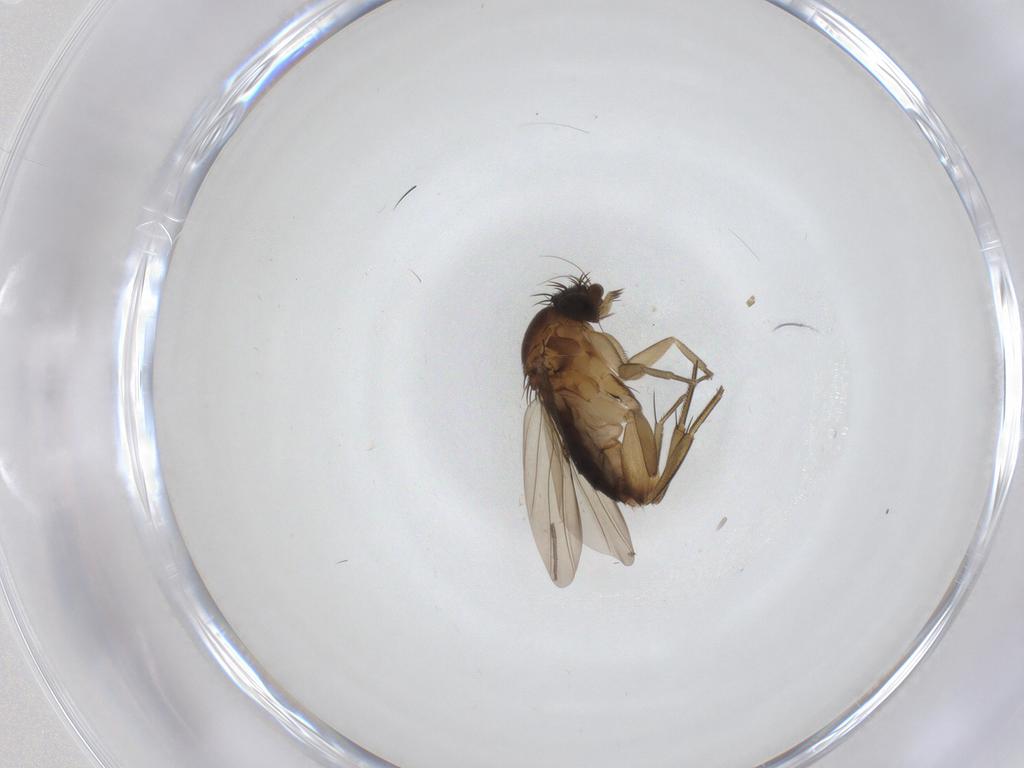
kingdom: Animalia
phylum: Arthropoda
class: Insecta
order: Diptera
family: Phoridae
